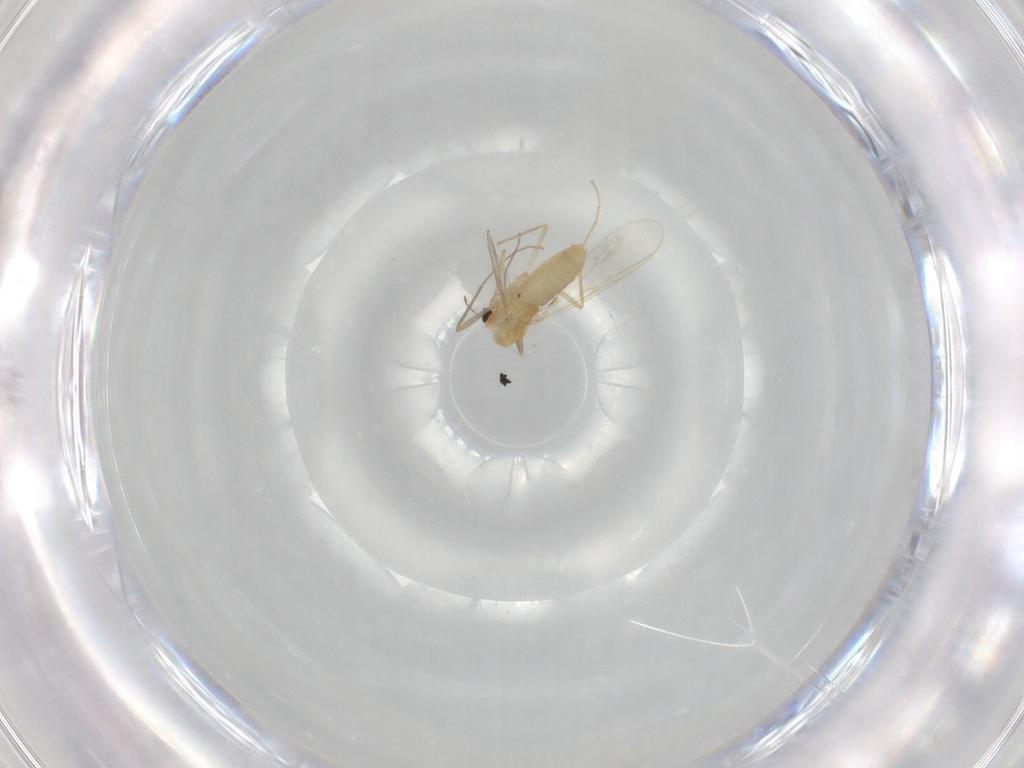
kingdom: Animalia
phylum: Arthropoda
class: Insecta
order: Diptera
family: Chironomidae
